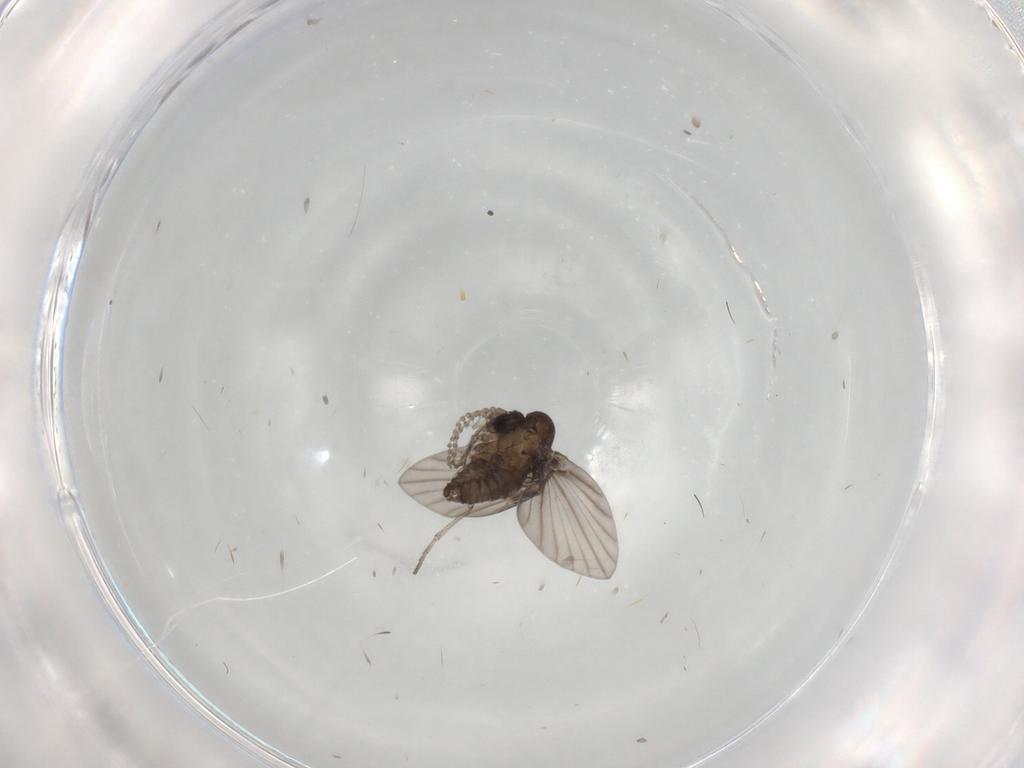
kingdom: Animalia
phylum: Arthropoda
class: Insecta
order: Diptera
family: Psychodidae
